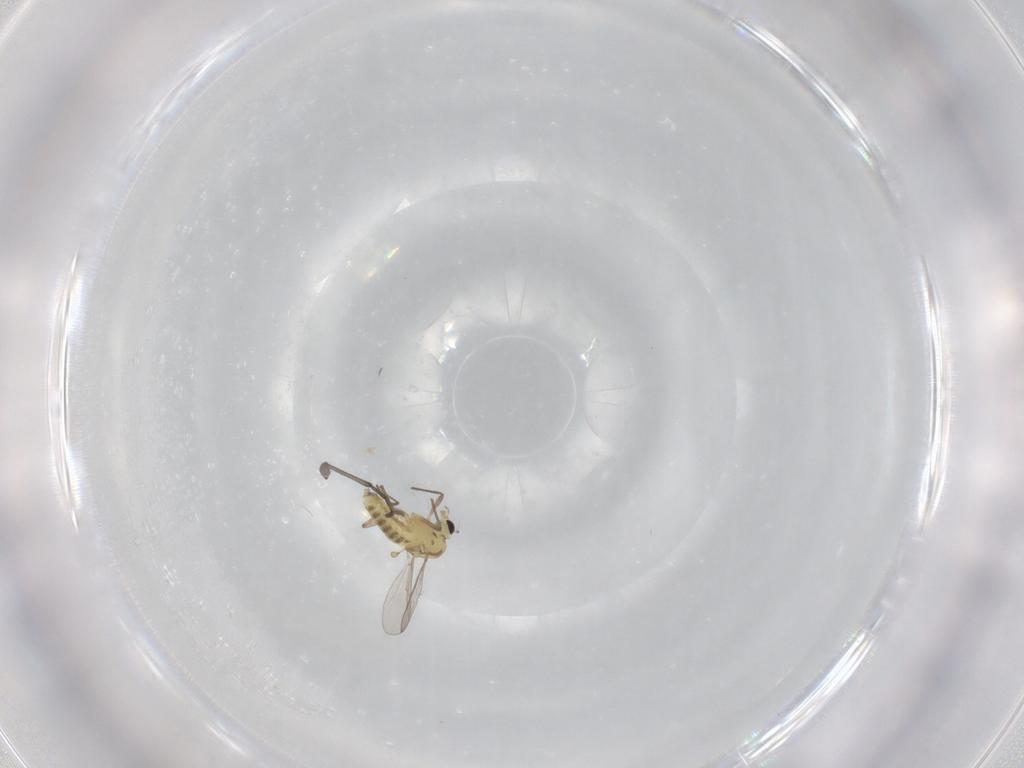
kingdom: Animalia
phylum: Arthropoda
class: Insecta
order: Diptera
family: Chironomidae
